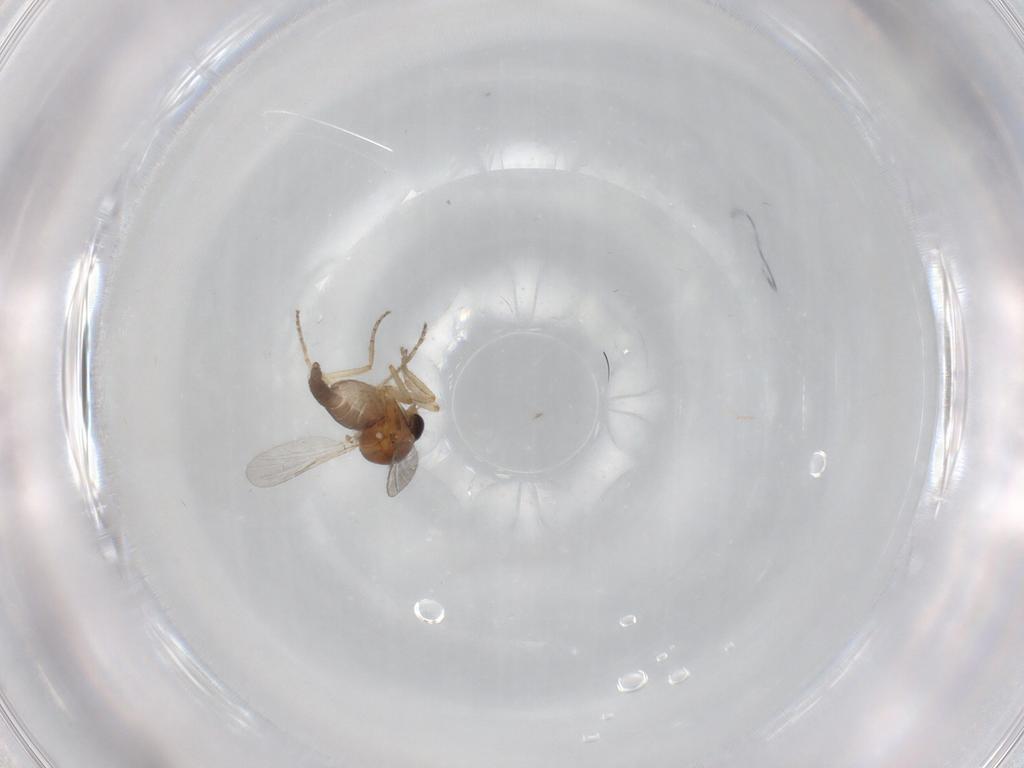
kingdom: Animalia
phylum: Arthropoda
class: Insecta
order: Diptera
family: Ceratopogonidae
